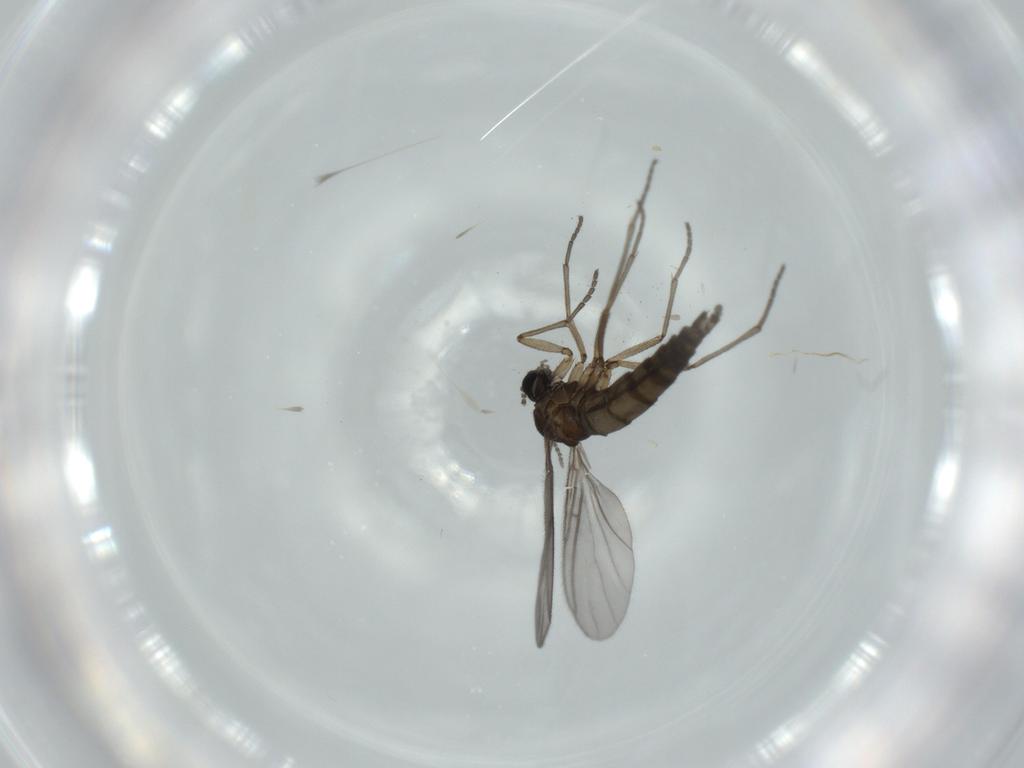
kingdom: Animalia
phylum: Arthropoda
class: Insecta
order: Diptera
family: Sciaridae
